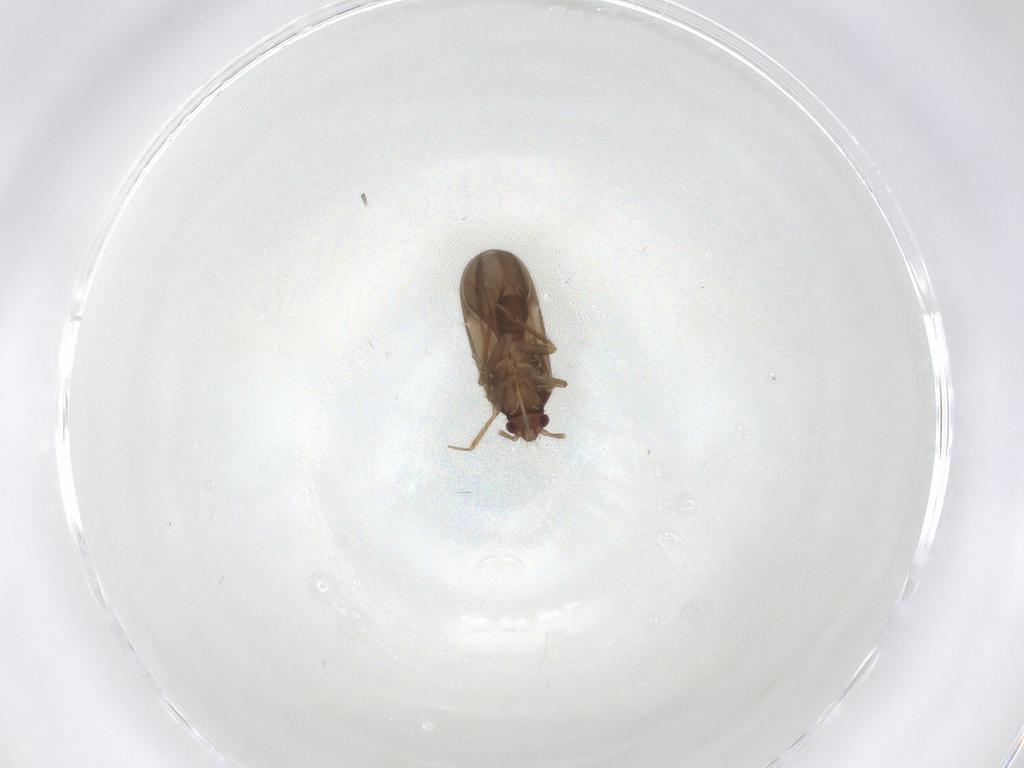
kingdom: Animalia
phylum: Arthropoda
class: Insecta
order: Hemiptera
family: Ceratocombidae
